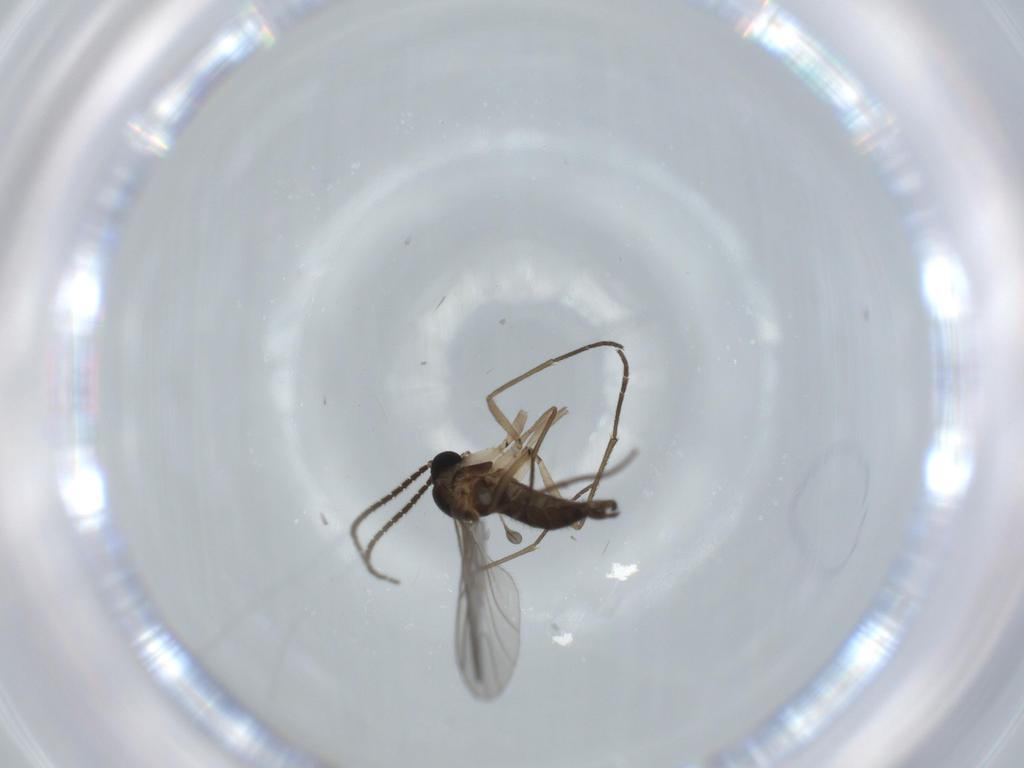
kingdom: Animalia
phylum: Arthropoda
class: Insecta
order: Diptera
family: Sciaridae
